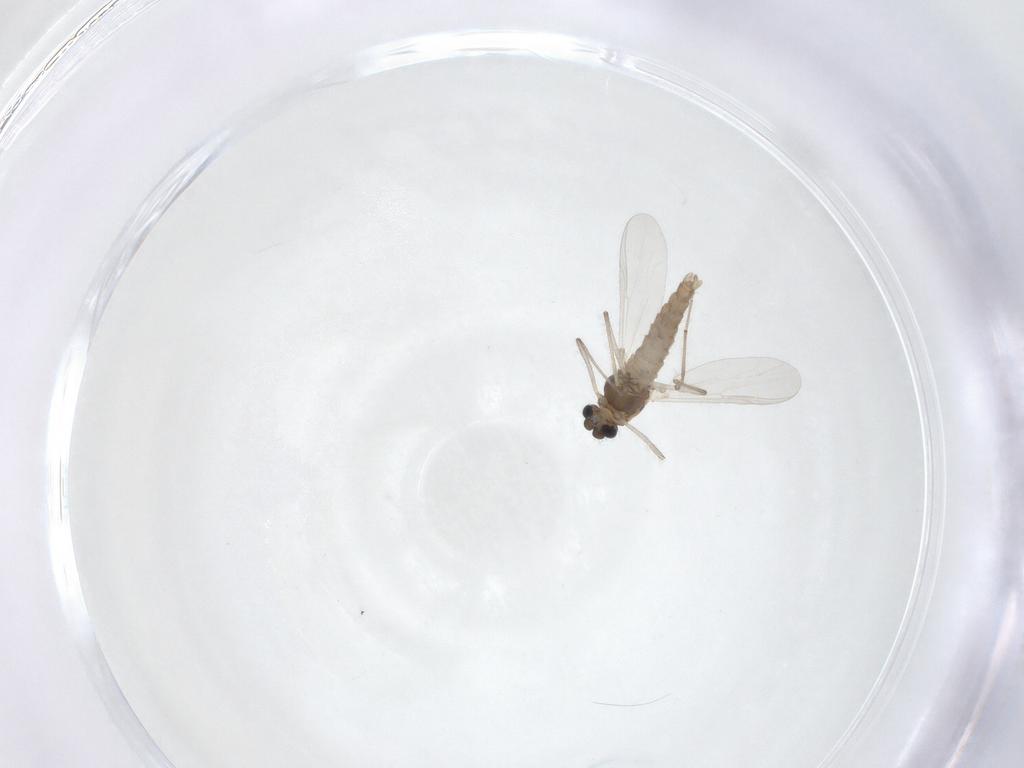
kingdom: Animalia
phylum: Arthropoda
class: Insecta
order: Diptera
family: Chironomidae
